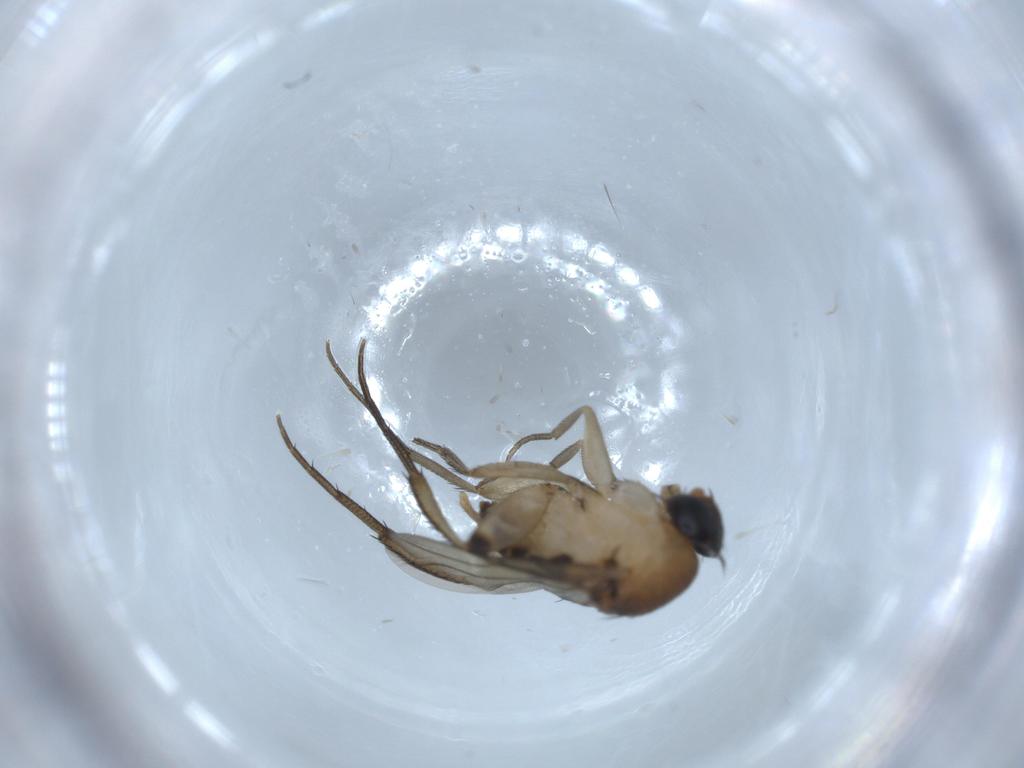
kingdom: Animalia
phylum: Arthropoda
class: Insecta
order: Diptera
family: Phoridae
